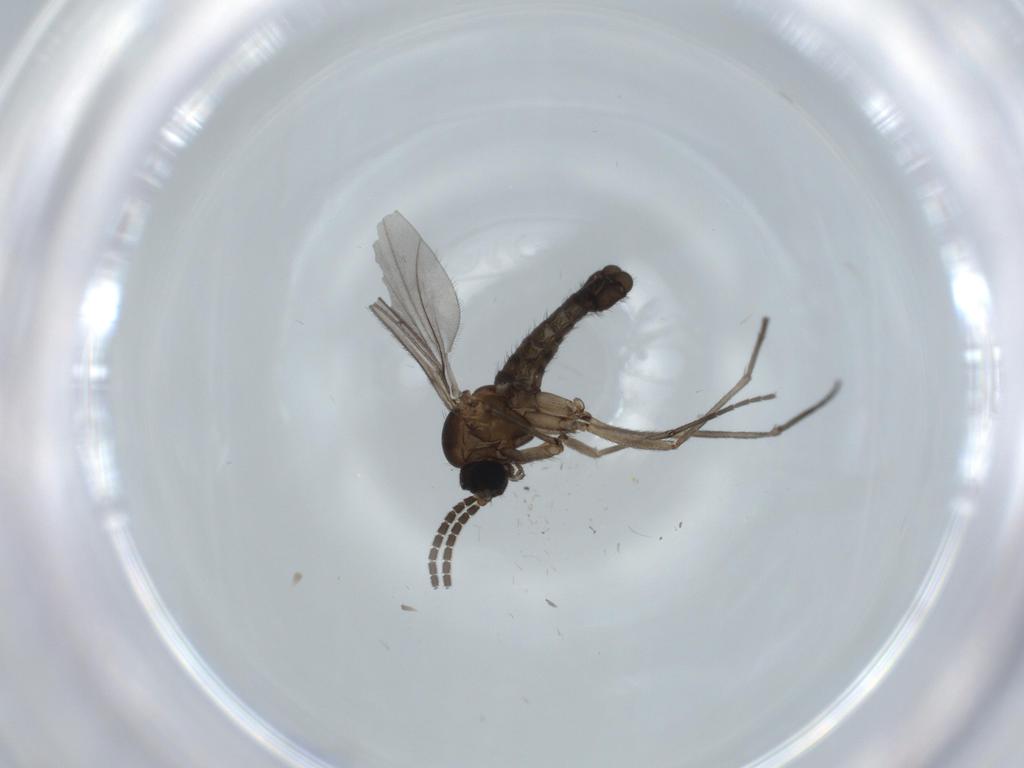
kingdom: Animalia
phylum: Arthropoda
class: Insecta
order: Diptera
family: Sciaridae
